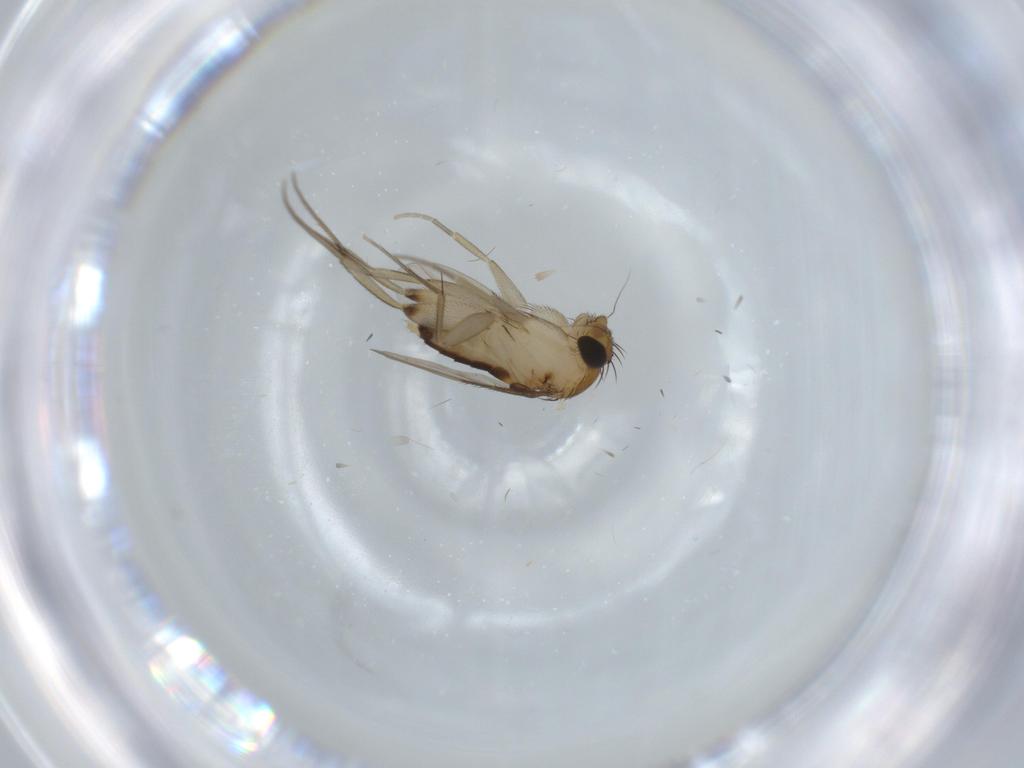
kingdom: Animalia
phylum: Arthropoda
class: Insecta
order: Diptera
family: Phoridae
